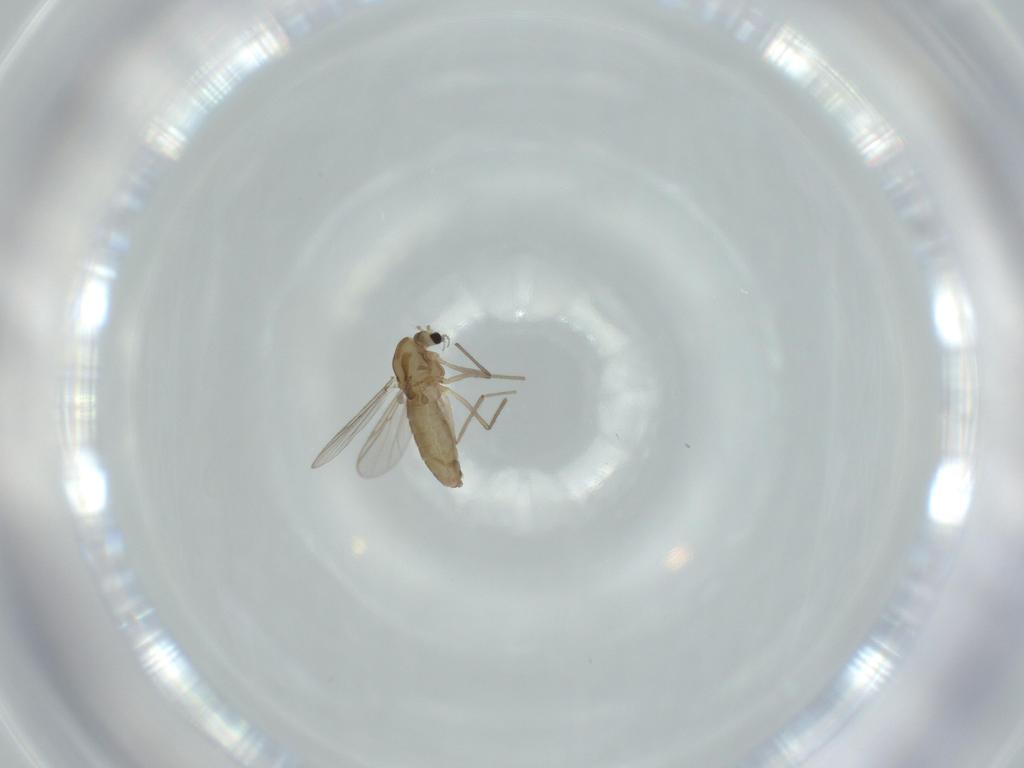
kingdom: Animalia
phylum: Arthropoda
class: Insecta
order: Diptera
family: Chironomidae
